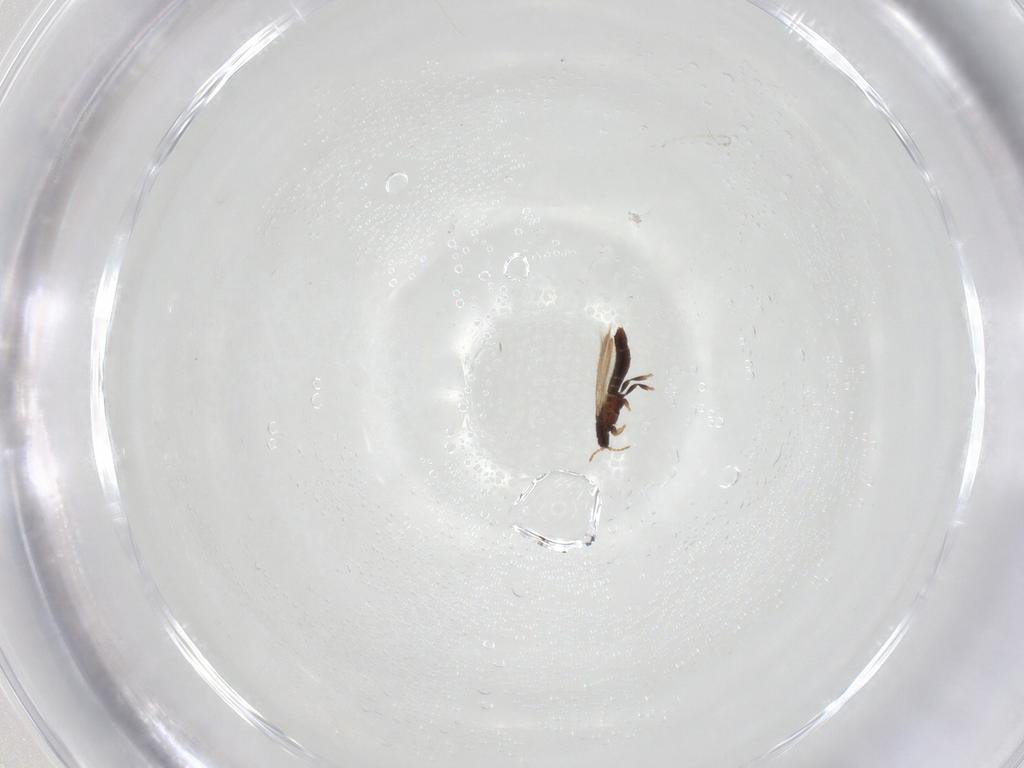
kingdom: Animalia
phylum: Arthropoda
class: Insecta
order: Thysanoptera
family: Thripidae
